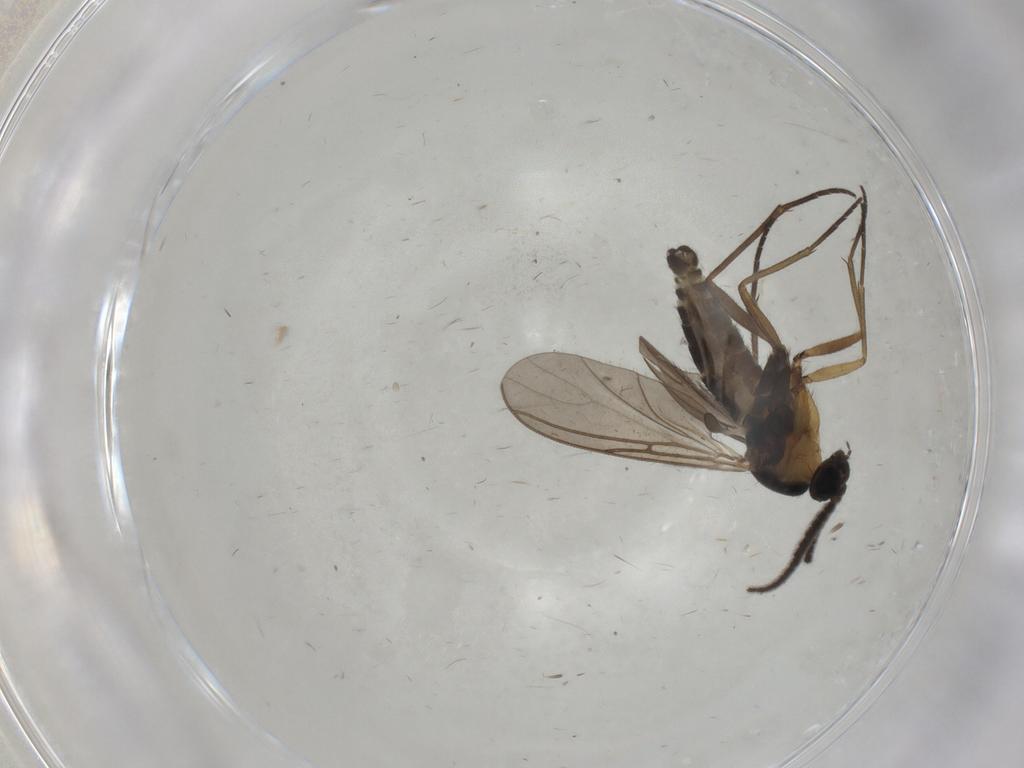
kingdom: Animalia
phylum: Arthropoda
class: Insecta
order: Diptera
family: Sciaridae
